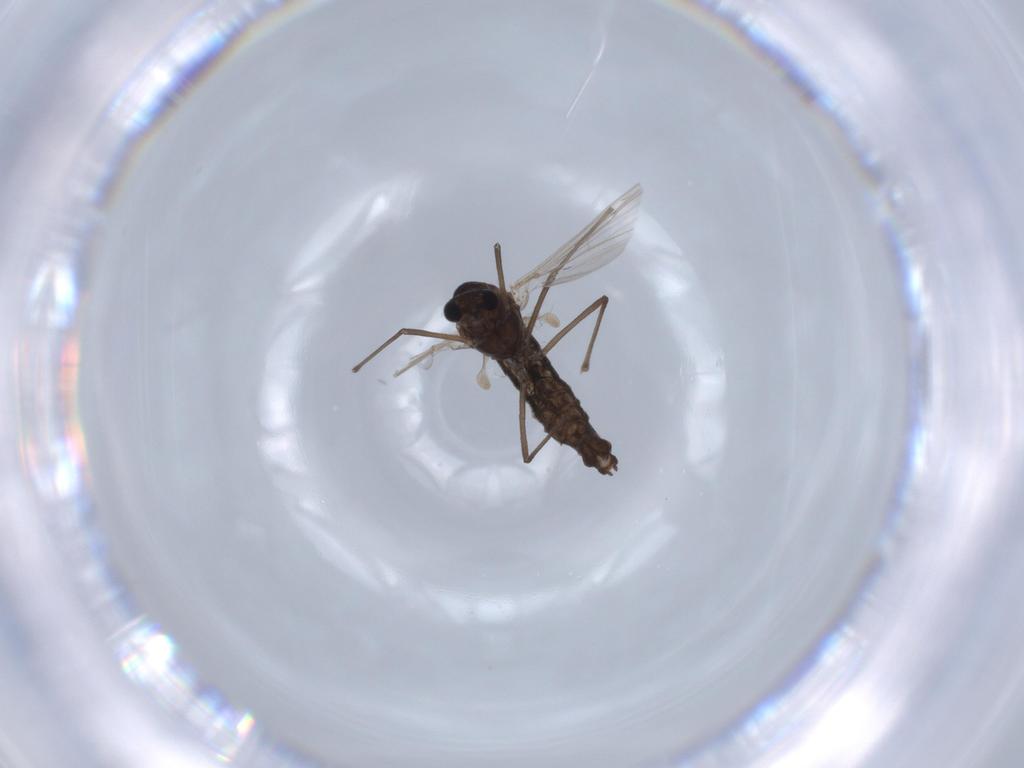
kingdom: Animalia
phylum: Arthropoda
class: Insecta
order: Diptera
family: Chironomidae
